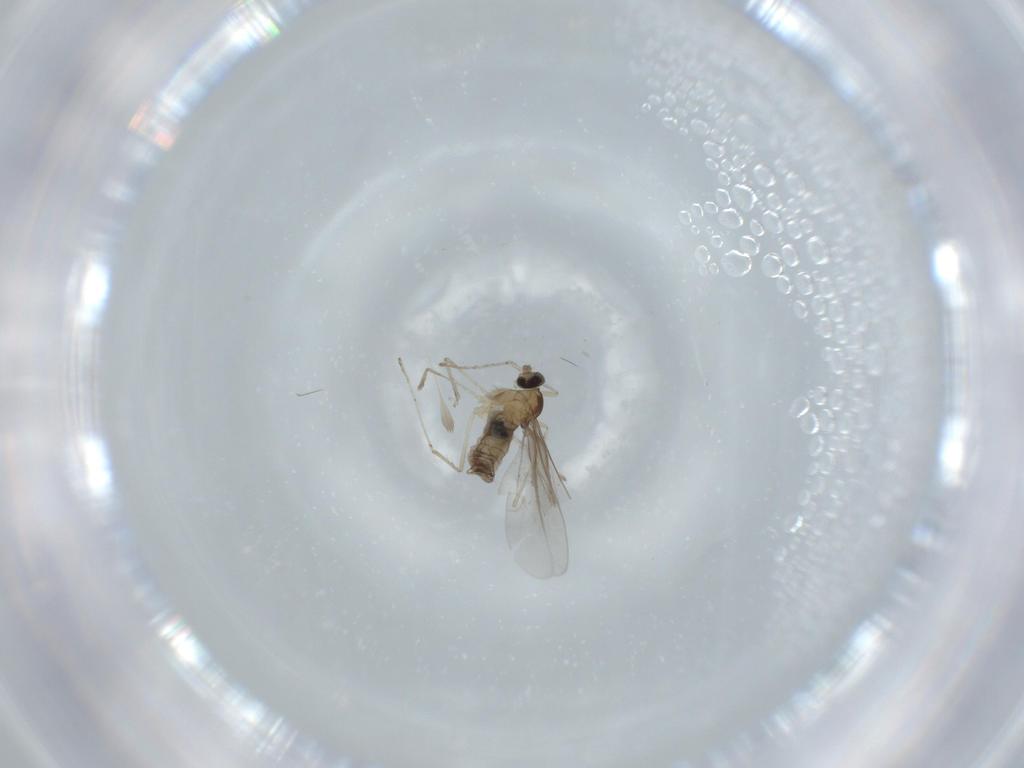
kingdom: Animalia
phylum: Arthropoda
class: Insecta
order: Diptera
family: Cecidomyiidae
